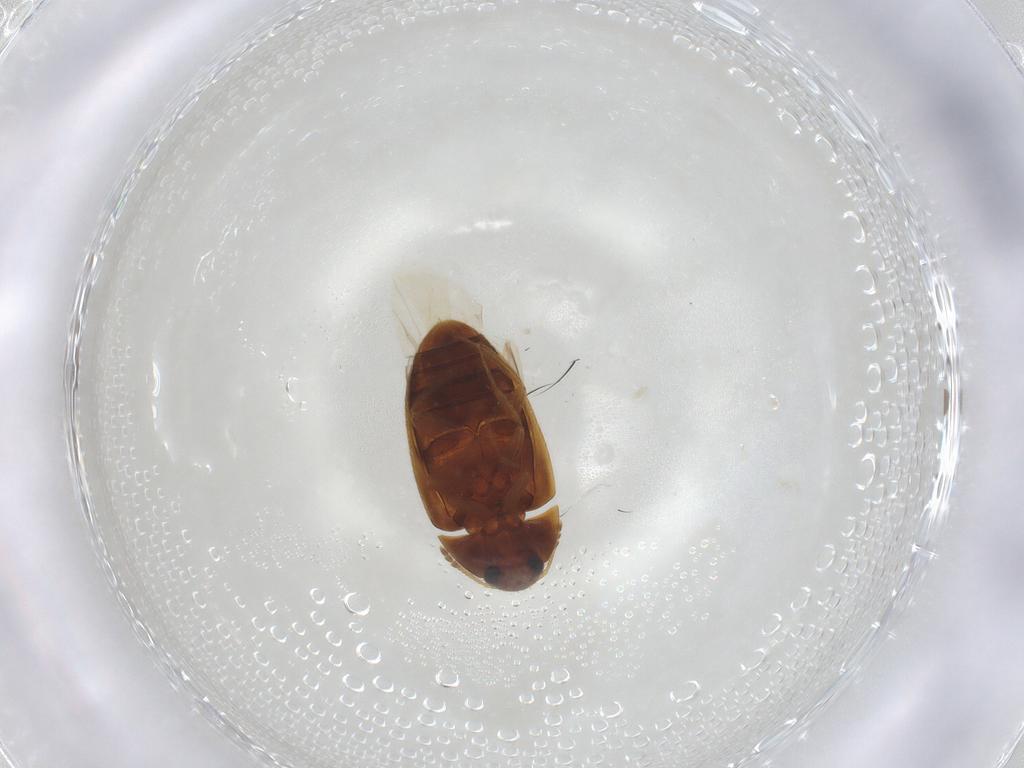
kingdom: Animalia
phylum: Arthropoda
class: Insecta
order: Coleoptera
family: Mycetophagidae
